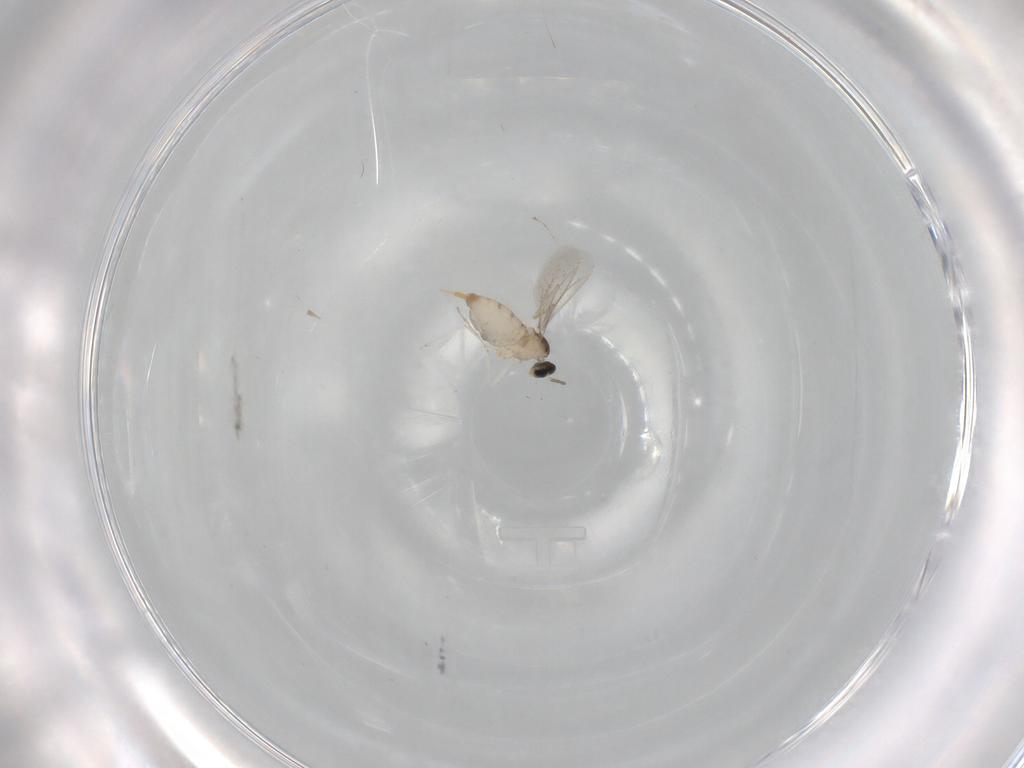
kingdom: Animalia
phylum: Arthropoda
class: Insecta
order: Diptera
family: Cecidomyiidae
